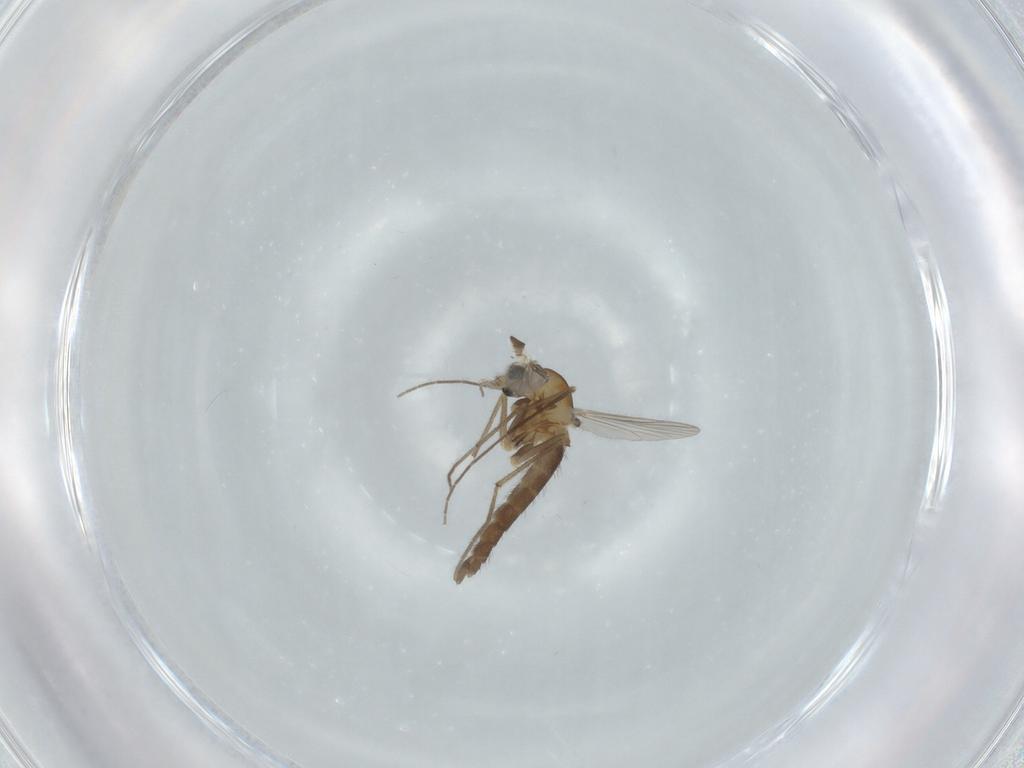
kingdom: Animalia
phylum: Arthropoda
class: Insecta
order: Diptera
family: Chironomidae
